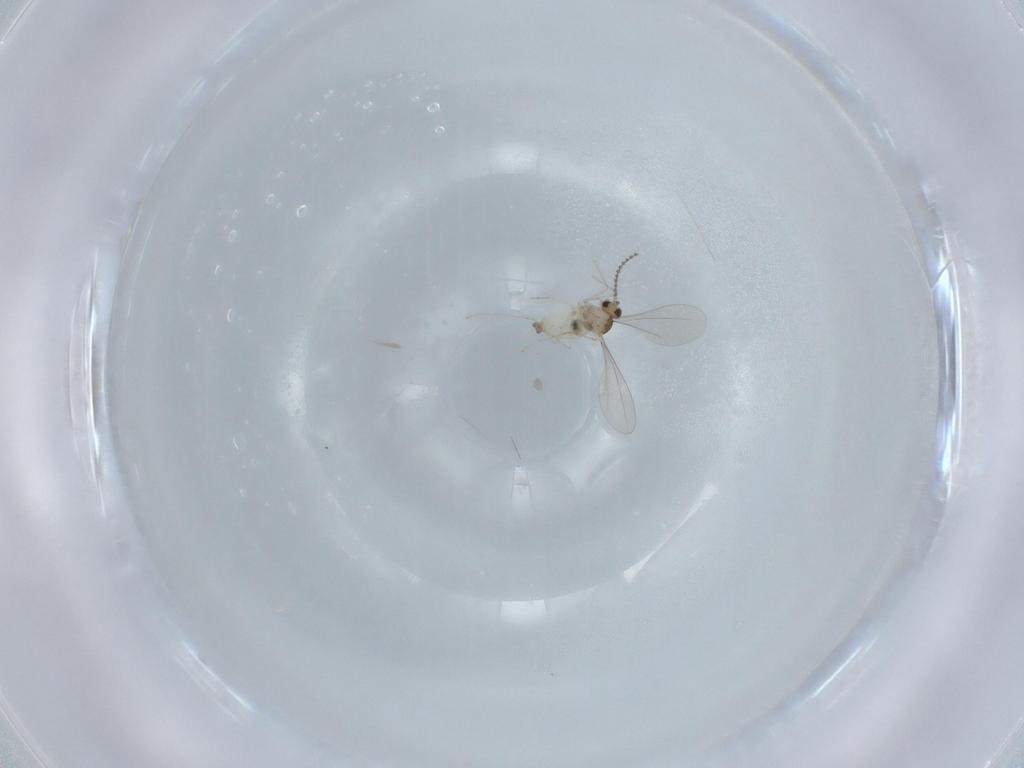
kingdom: Animalia
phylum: Arthropoda
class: Insecta
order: Diptera
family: Cecidomyiidae
